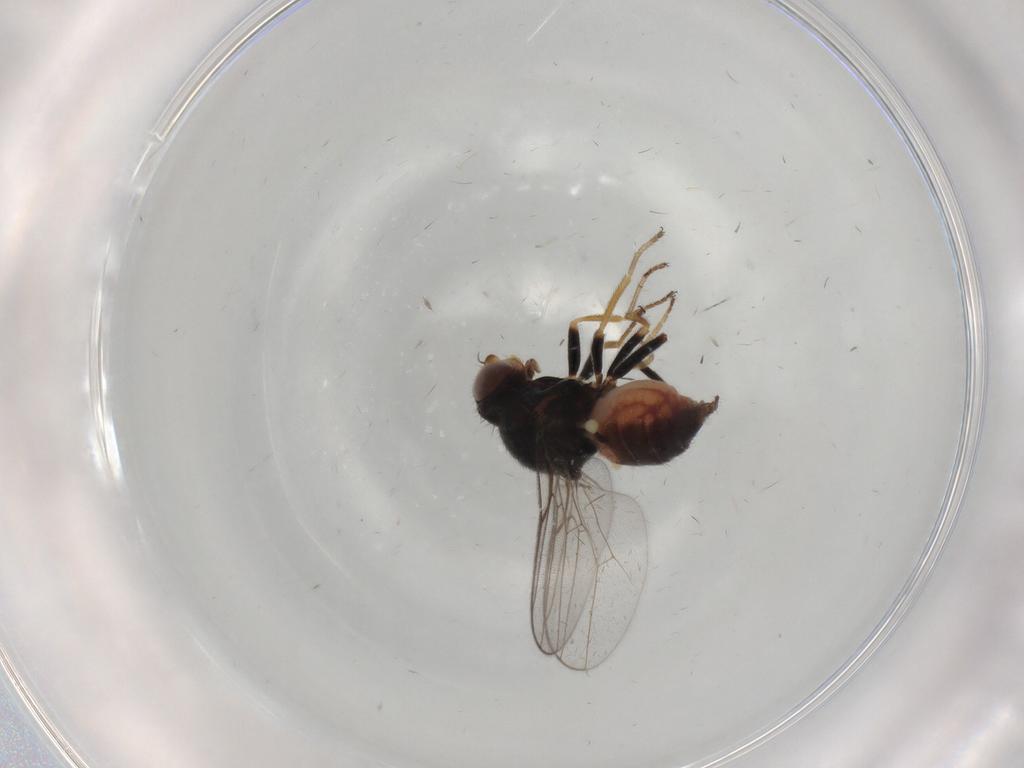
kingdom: Animalia
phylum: Arthropoda
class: Insecta
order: Diptera
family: Chloropidae
